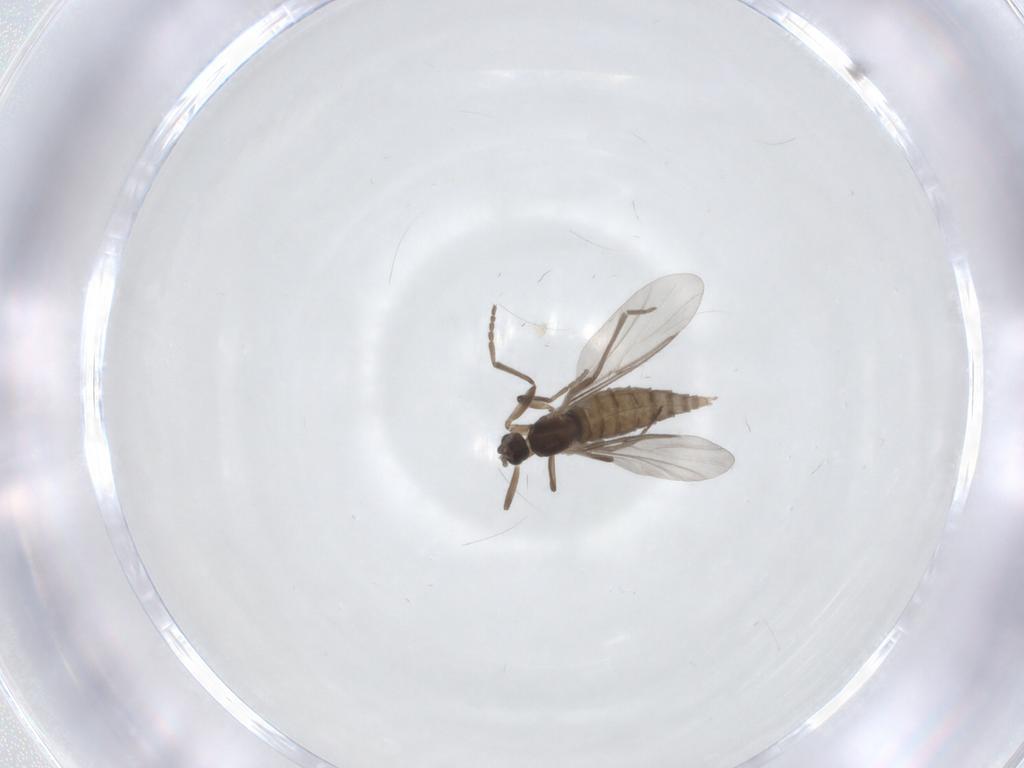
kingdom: Animalia
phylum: Arthropoda
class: Insecta
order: Diptera
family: Cecidomyiidae
